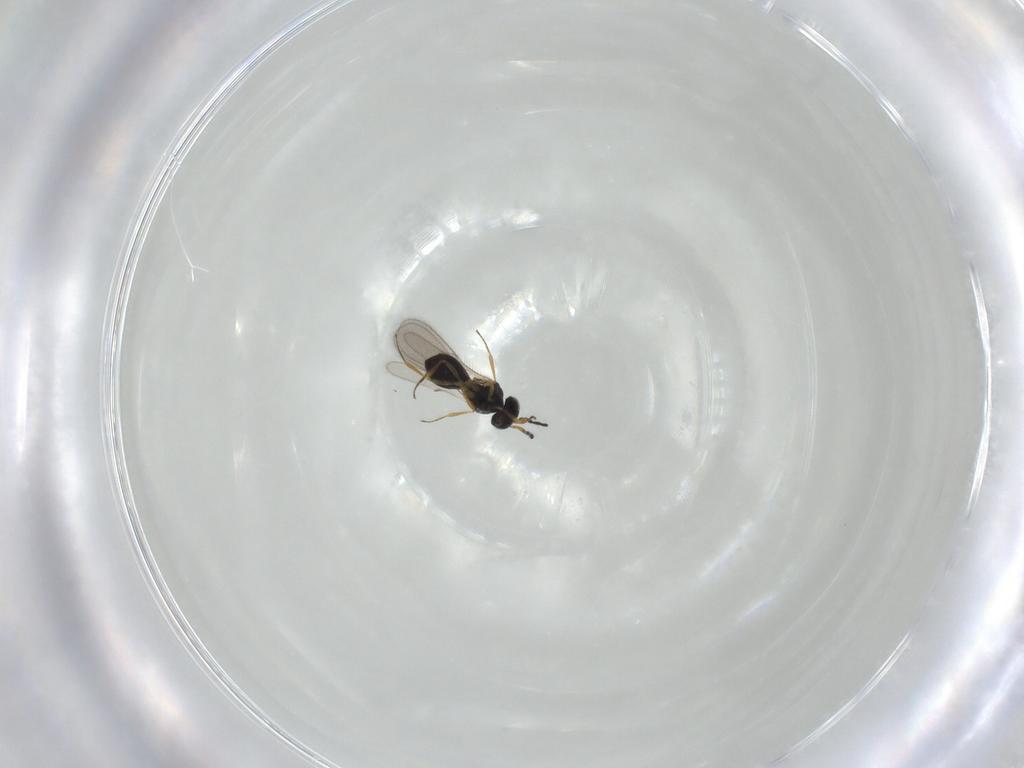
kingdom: Animalia
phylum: Arthropoda
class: Insecta
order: Hymenoptera
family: Scelionidae
